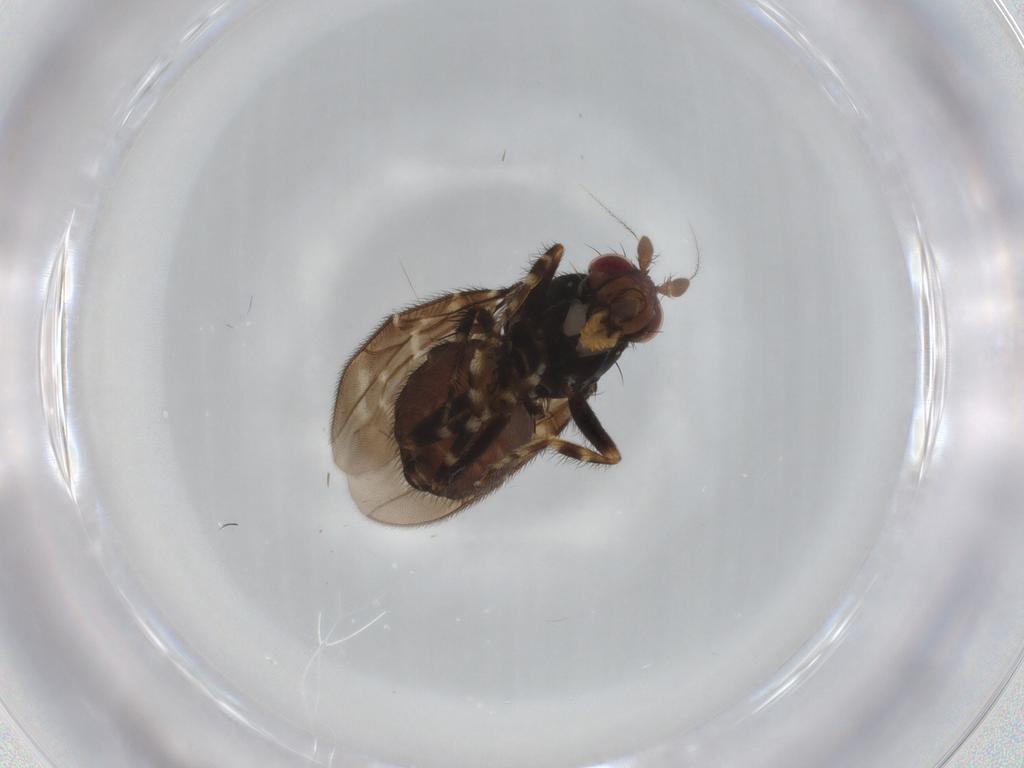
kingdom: Animalia
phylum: Arthropoda
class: Insecta
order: Diptera
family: Sphaeroceridae
